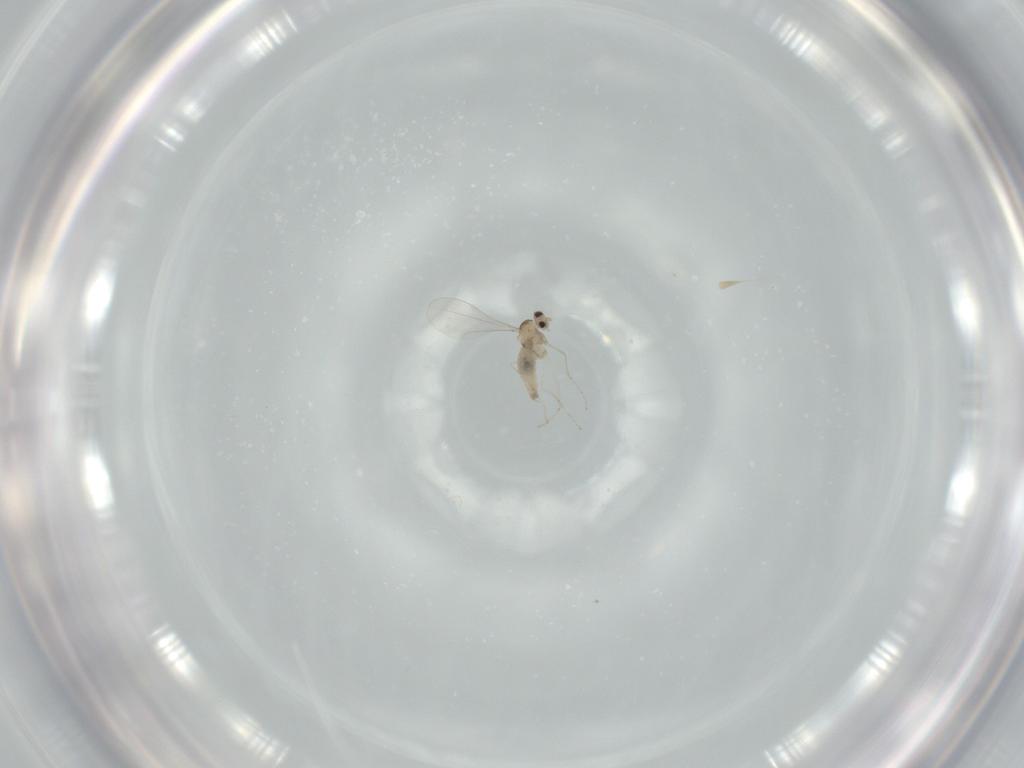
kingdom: Animalia
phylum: Arthropoda
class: Insecta
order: Diptera
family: Cecidomyiidae
